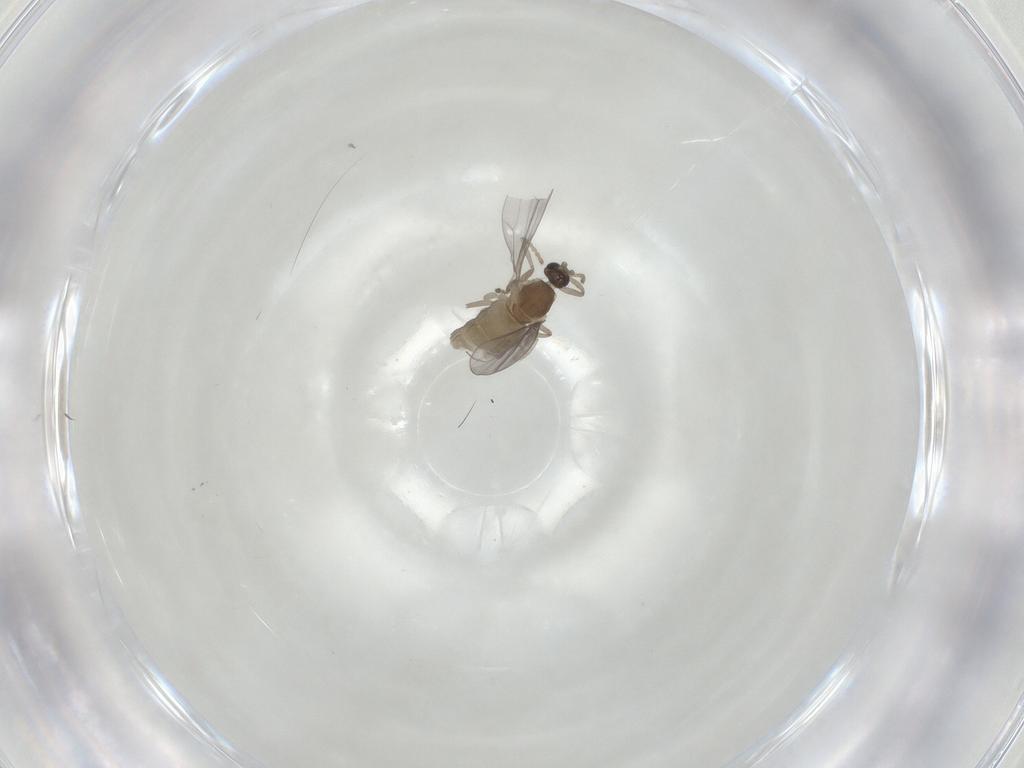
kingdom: Animalia
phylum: Arthropoda
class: Insecta
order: Diptera
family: Cecidomyiidae
